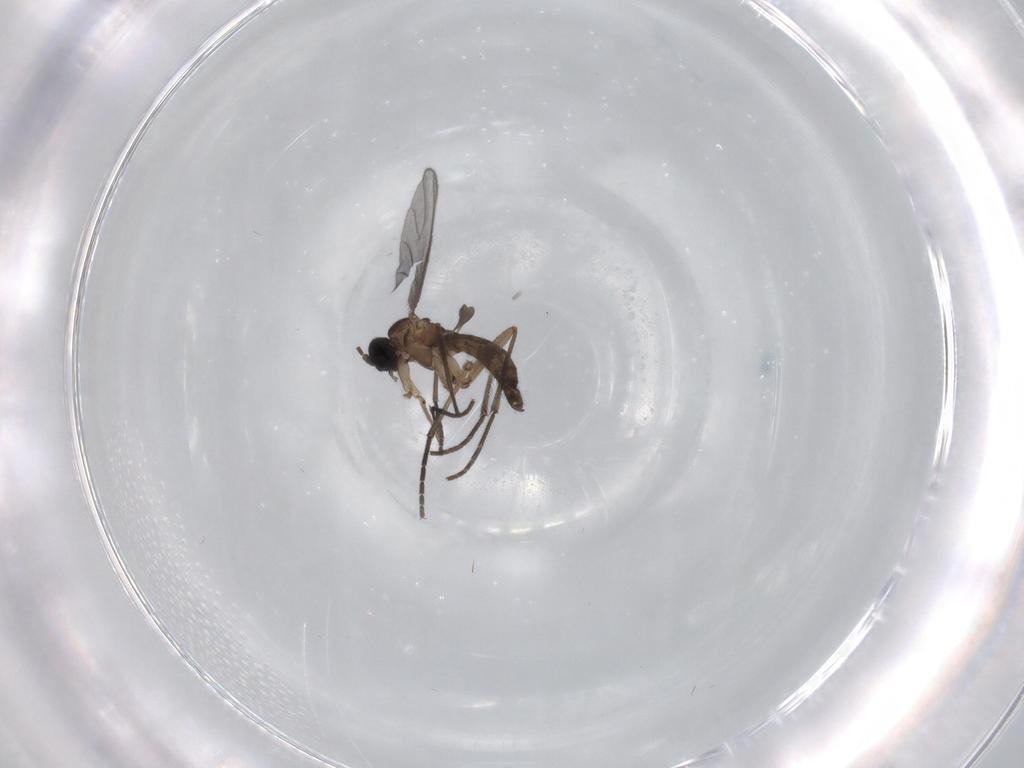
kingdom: Animalia
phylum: Arthropoda
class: Insecta
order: Diptera
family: Sciaridae
